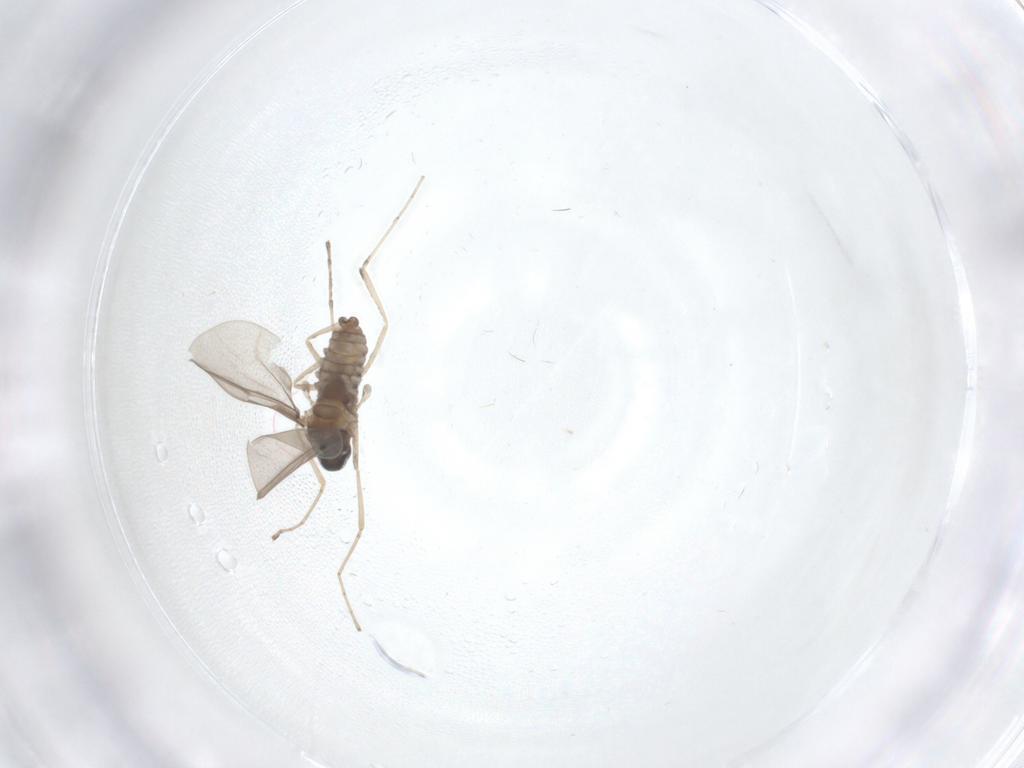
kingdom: Animalia
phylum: Arthropoda
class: Insecta
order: Diptera
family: Cecidomyiidae
